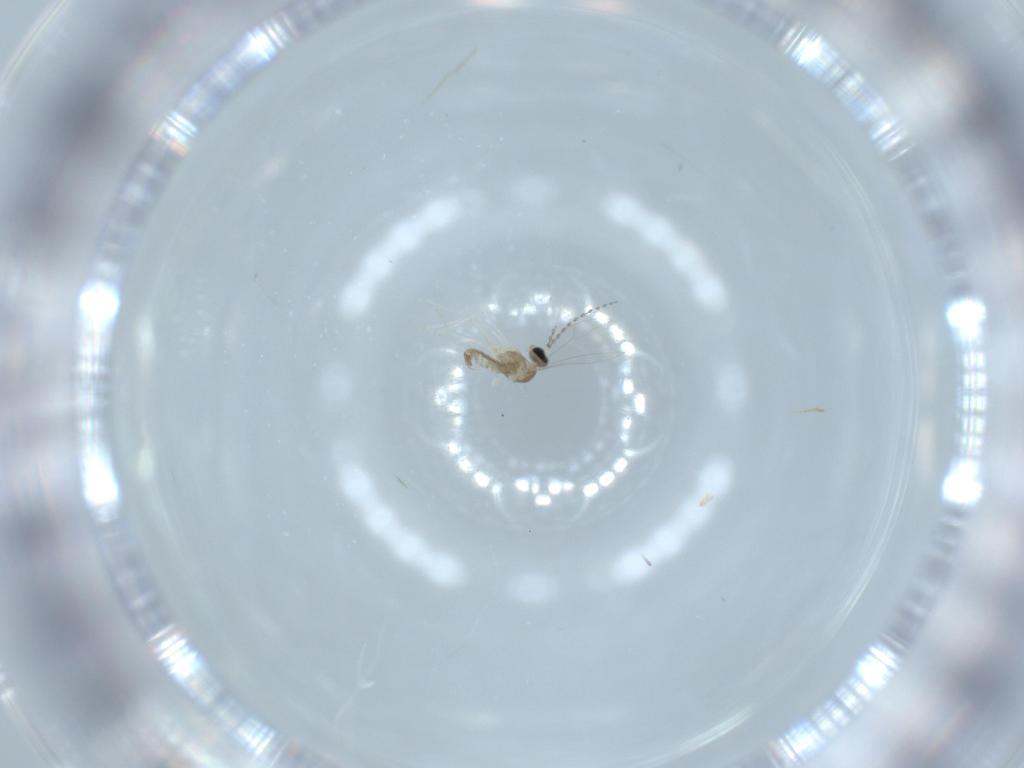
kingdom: Animalia
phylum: Arthropoda
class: Insecta
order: Diptera
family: Cecidomyiidae
